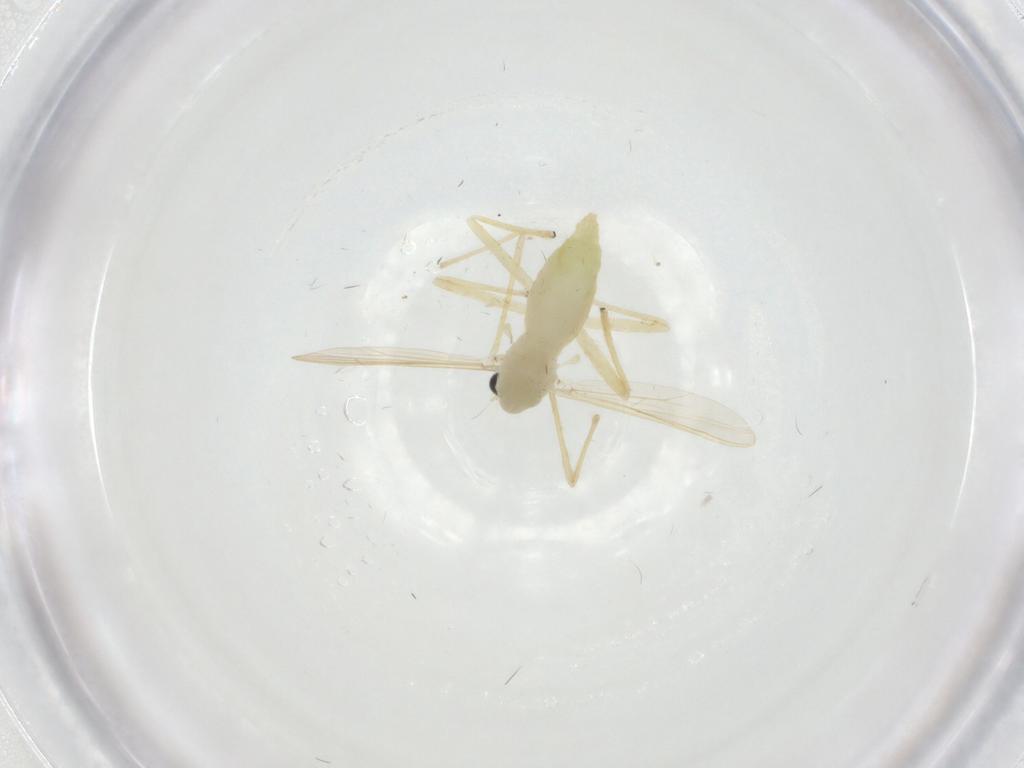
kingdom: Animalia
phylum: Arthropoda
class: Insecta
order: Diptera
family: Chironomidae
